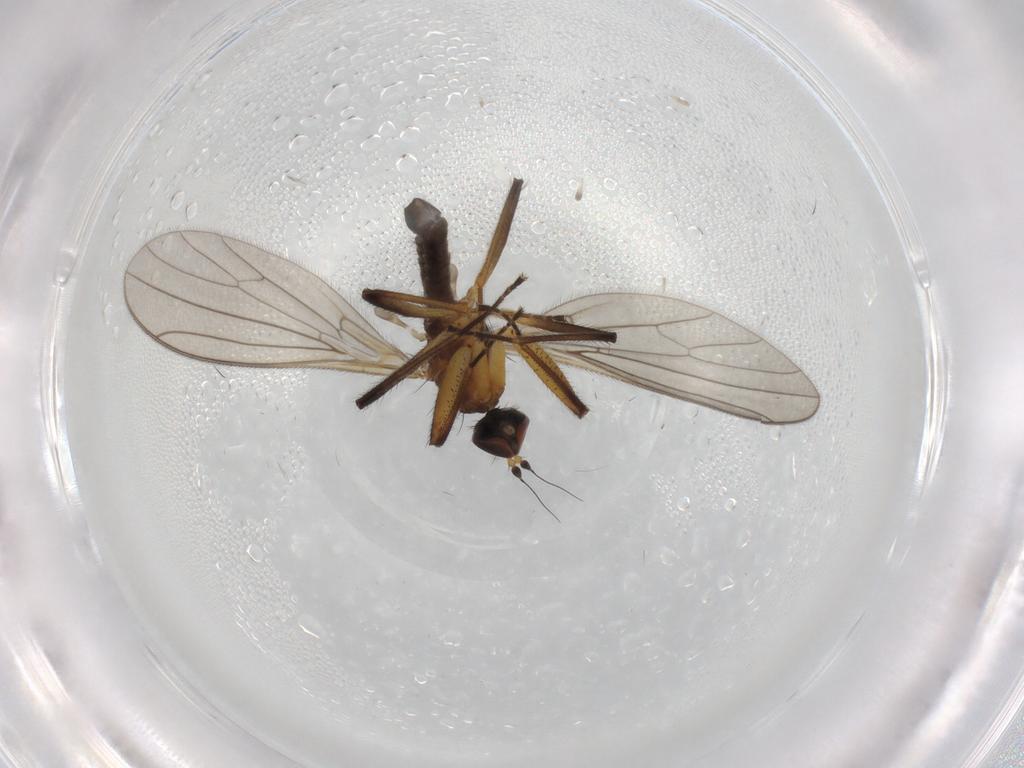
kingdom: Animalia
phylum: Arthropoda
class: Insecta
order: Diptera
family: Empididae
